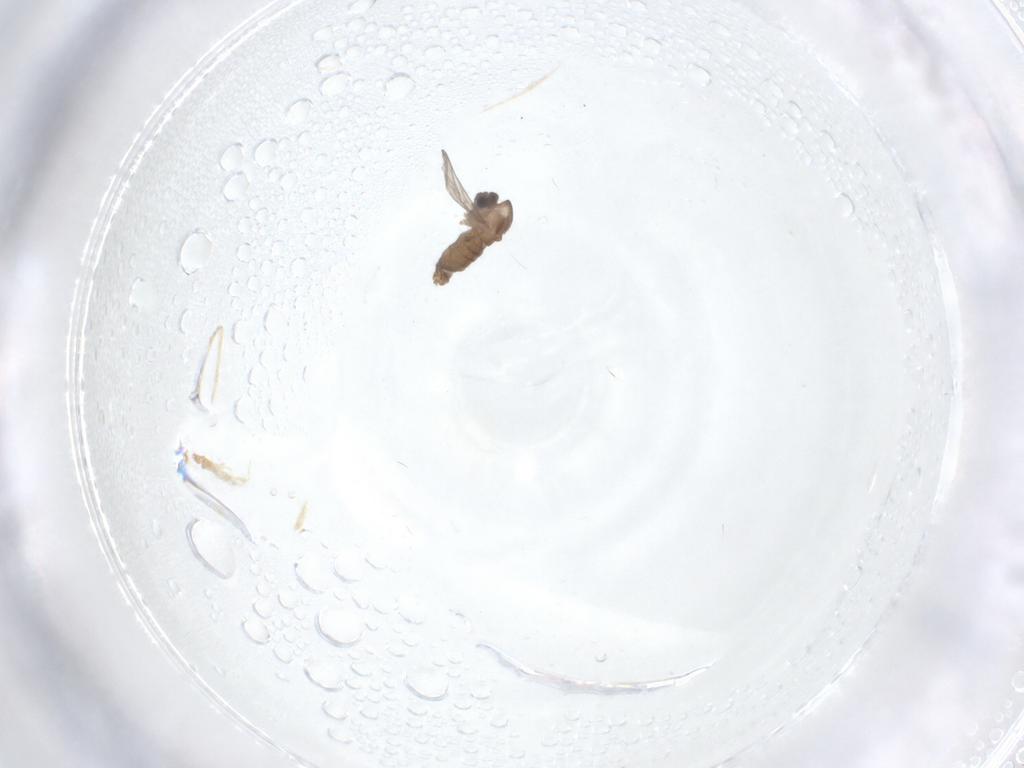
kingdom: Animalia
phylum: Arthropoda
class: Insecta
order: Diptera
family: Chironomidae
